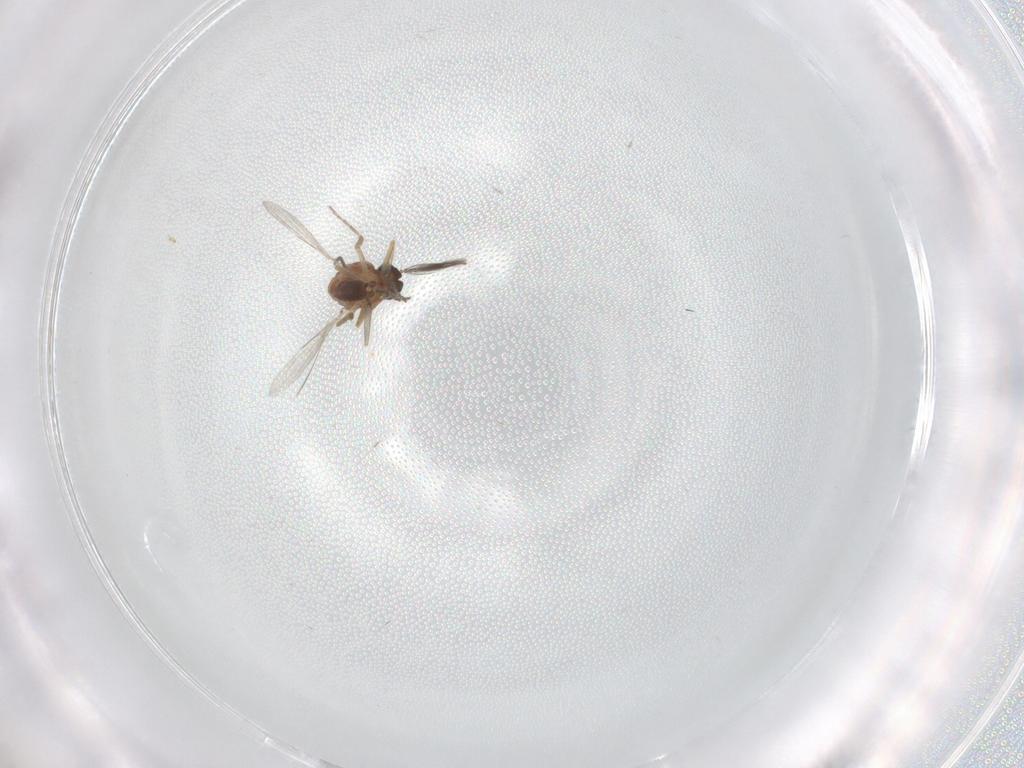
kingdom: Animalia
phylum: Arthropoda
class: Insecta
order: Diptera
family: Ceratopogonidae
